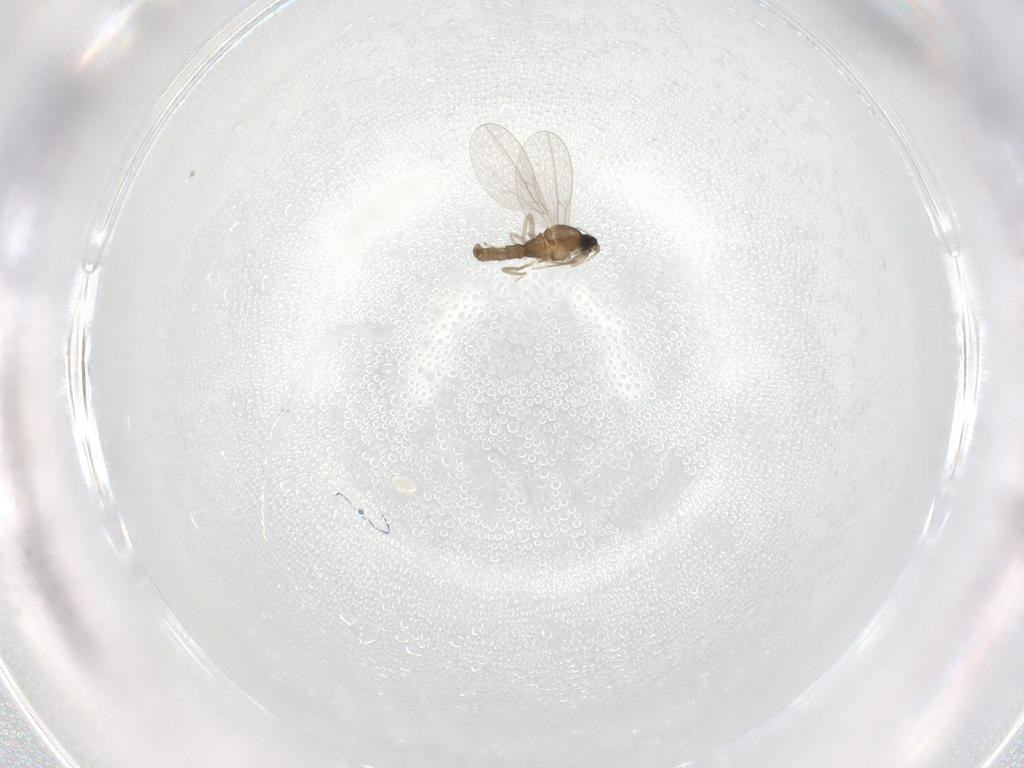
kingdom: Animalia
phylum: Arthropoda
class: Insecta
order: Diptera
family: Cecidomyiidae
